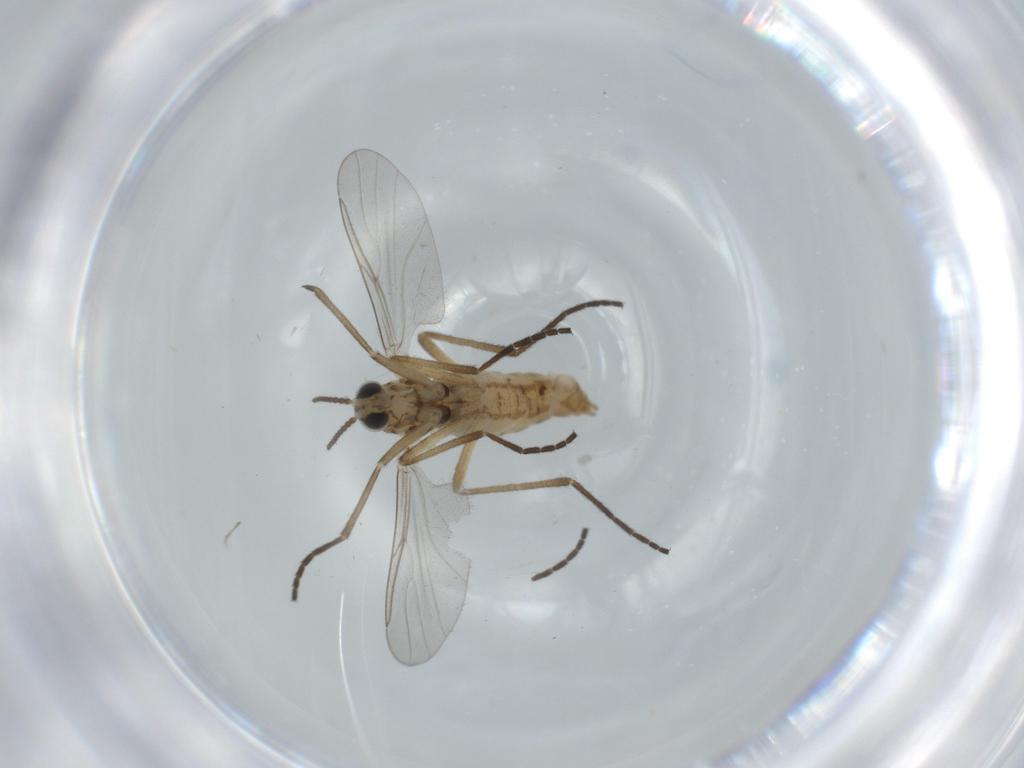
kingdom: Animalia
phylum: Arthropoda
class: Insecta
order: Diptera
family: Cecidomyiidae
